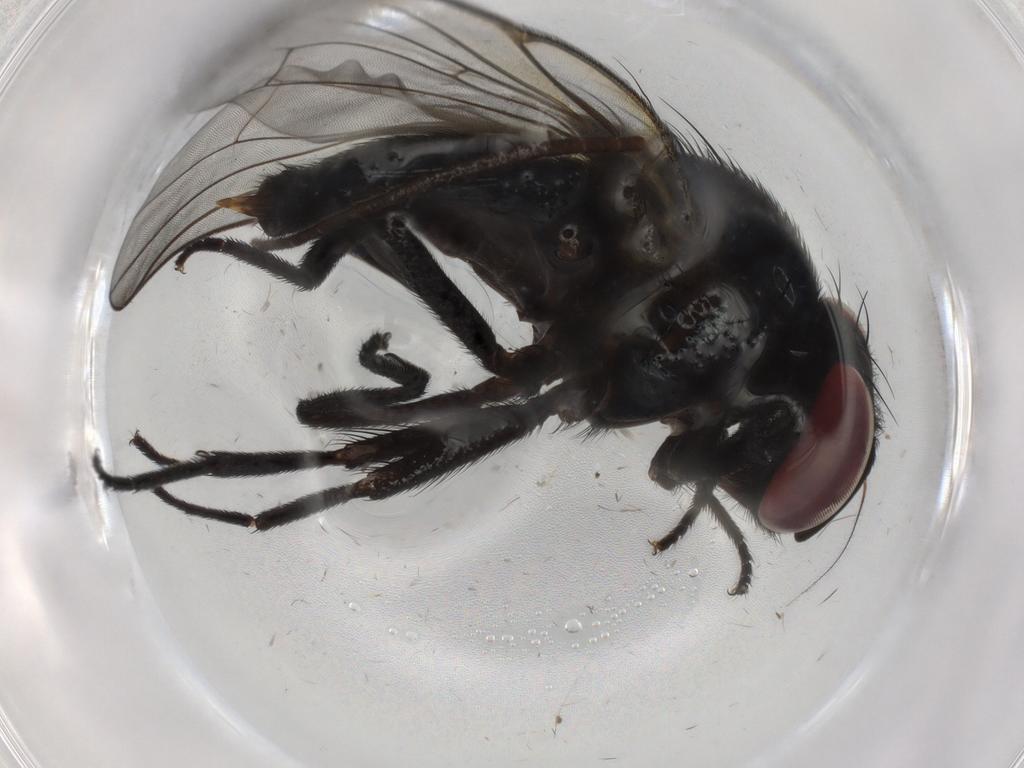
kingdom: Animalia
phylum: Arthropoda
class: Insecta
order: Diptera
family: Lonchaeidae
